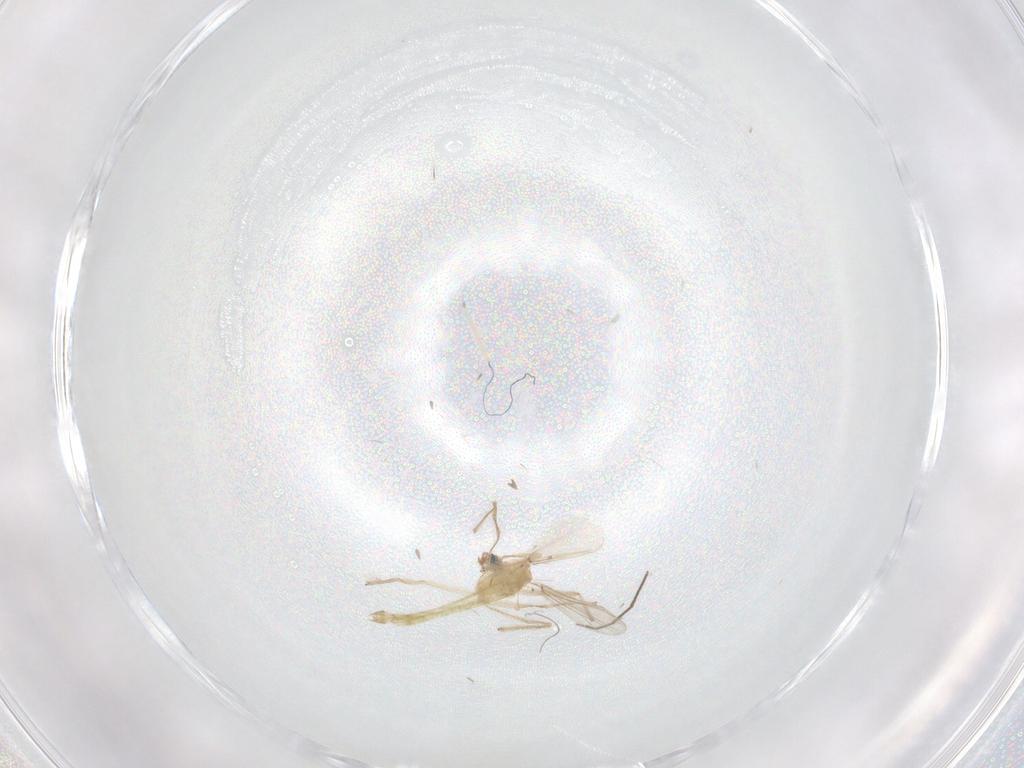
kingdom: Animalia
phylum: Arthropoda
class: Insecta
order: Diptera
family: Chironomidae
